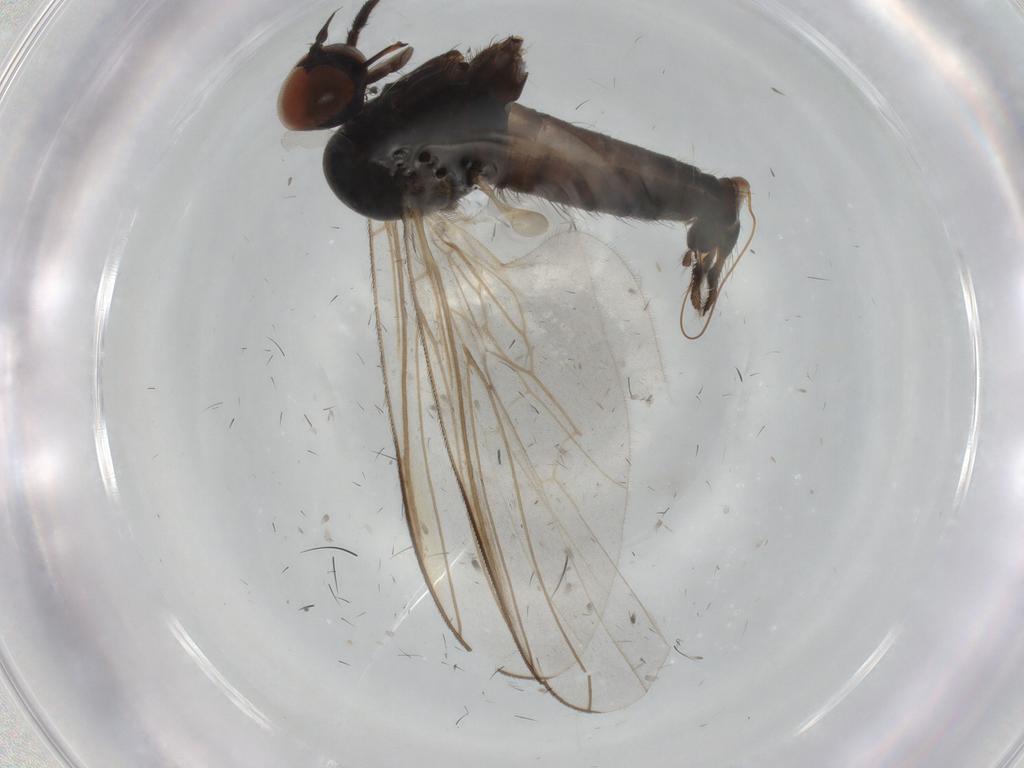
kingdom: Animalia
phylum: Arthropoda
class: Insecta
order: Diptera
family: Empididae
